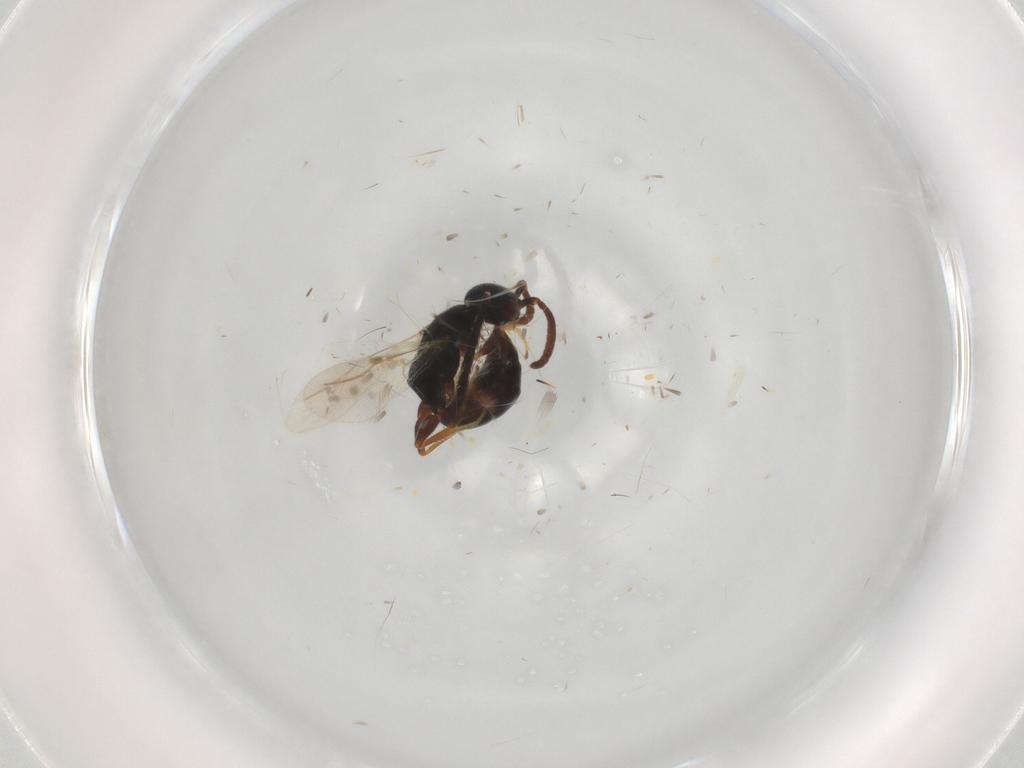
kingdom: Animalia
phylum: Arthropoda
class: Insecta
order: Hymenoptera
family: Bethylidae
